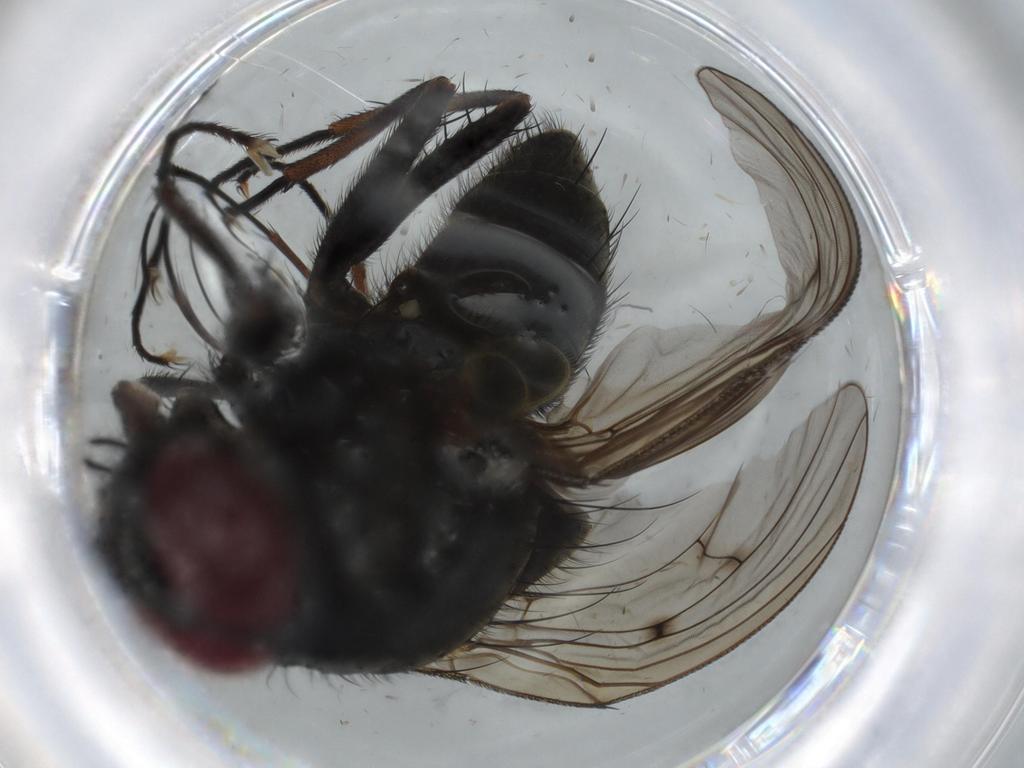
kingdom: Animalia
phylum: Arthropoda
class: Insecta
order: Diptera
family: Muscidae
